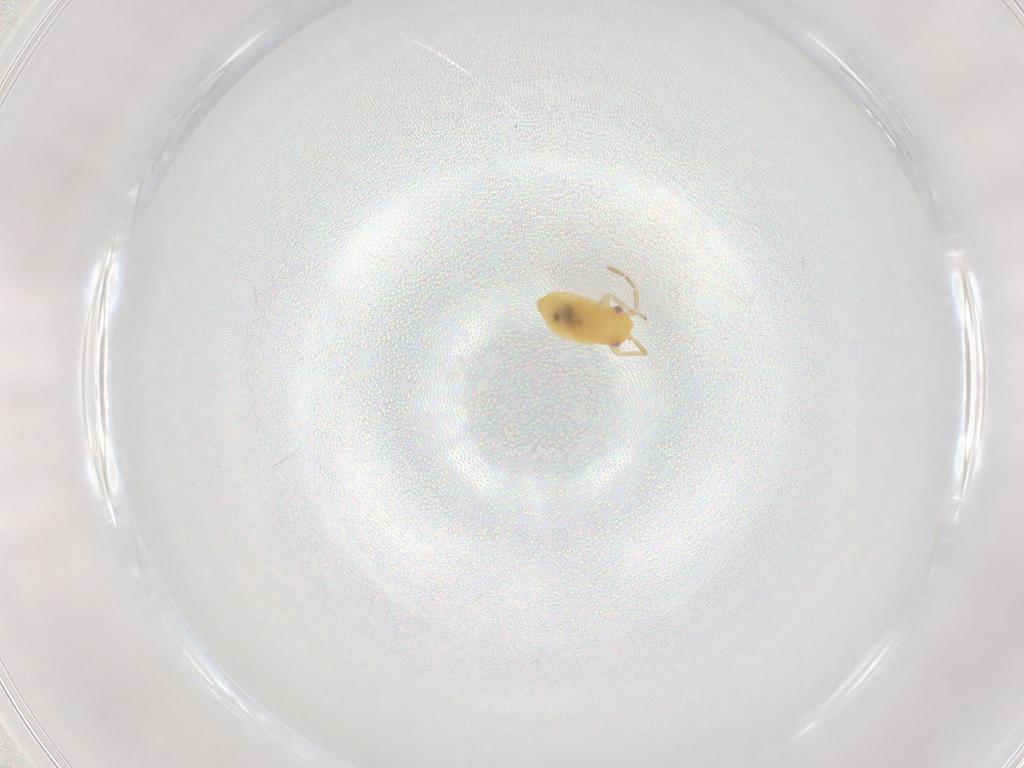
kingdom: Animalia
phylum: Arthropoda
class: Insecta
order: Hemiptera
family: Miridae
